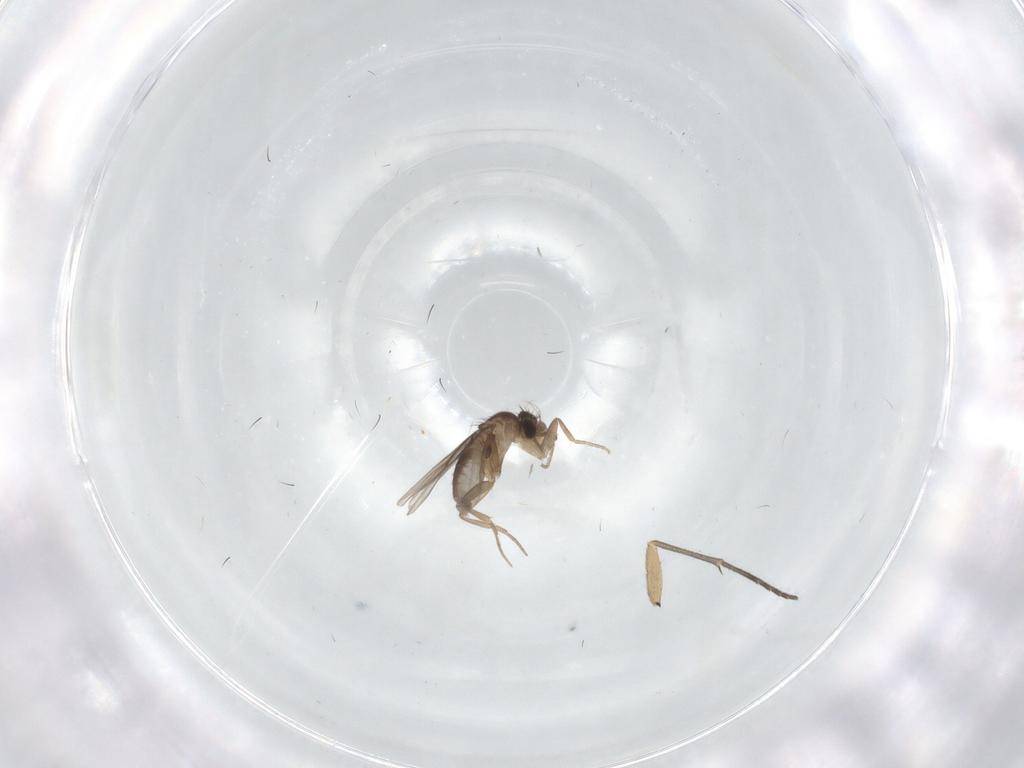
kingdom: Animalia
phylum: Arthropoda
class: Insecta
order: Diptera
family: Phoridae
